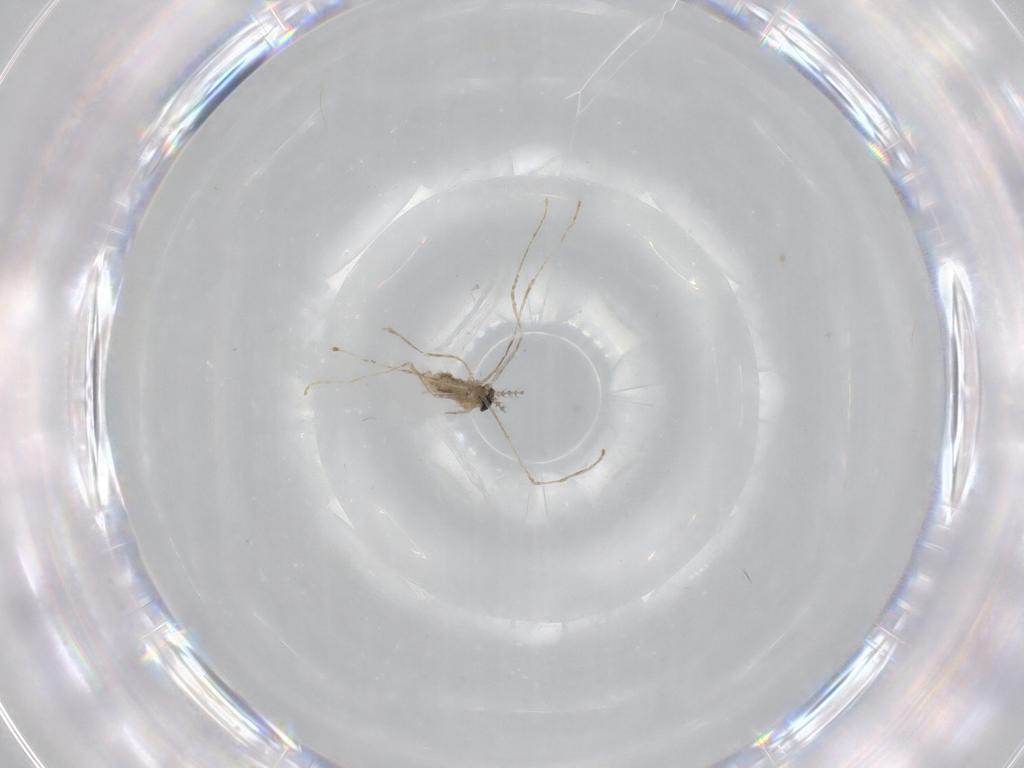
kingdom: Animalia
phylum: Arthropoda
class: Insecta
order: Diptera
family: Cecidomyiidae
